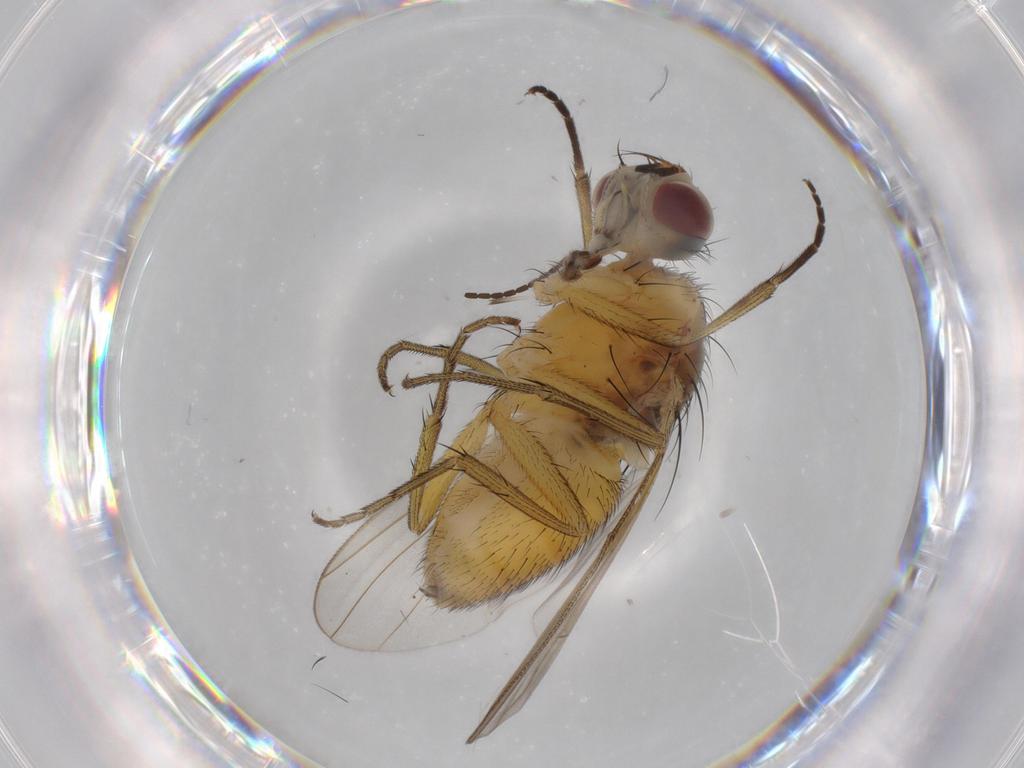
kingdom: Animalia
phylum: Arthropoda
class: Insecta
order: Diptera
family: Muscidae
